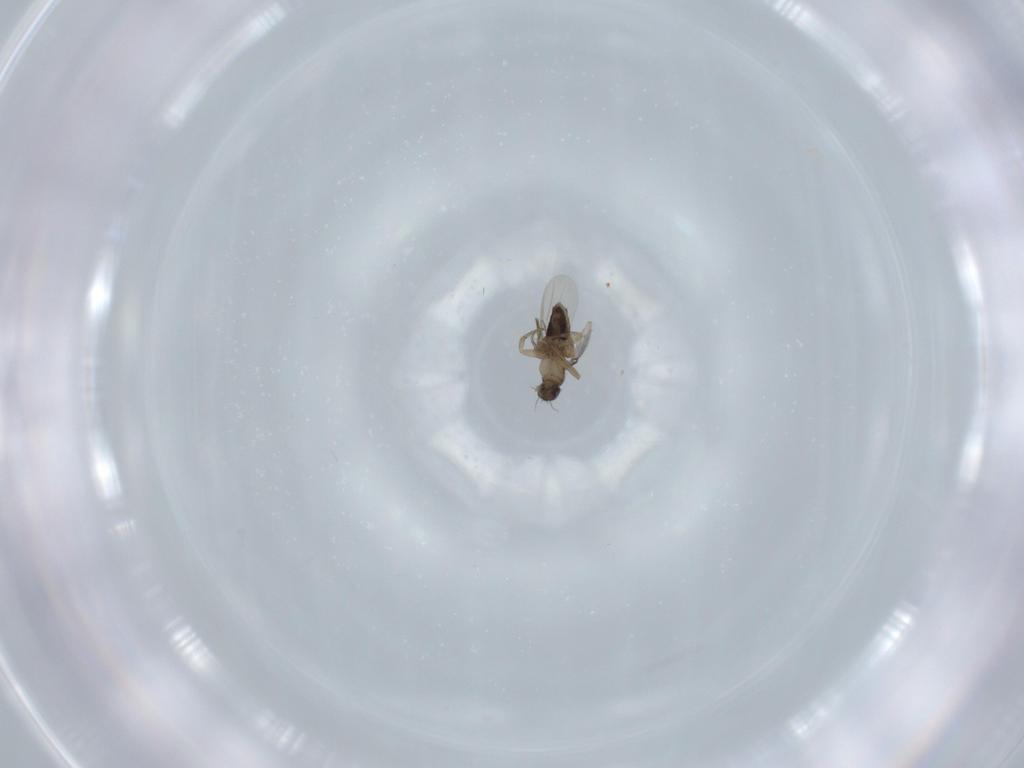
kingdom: Animalia
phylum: Arthropoda
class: Insecta
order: Diptera
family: Phoridae
